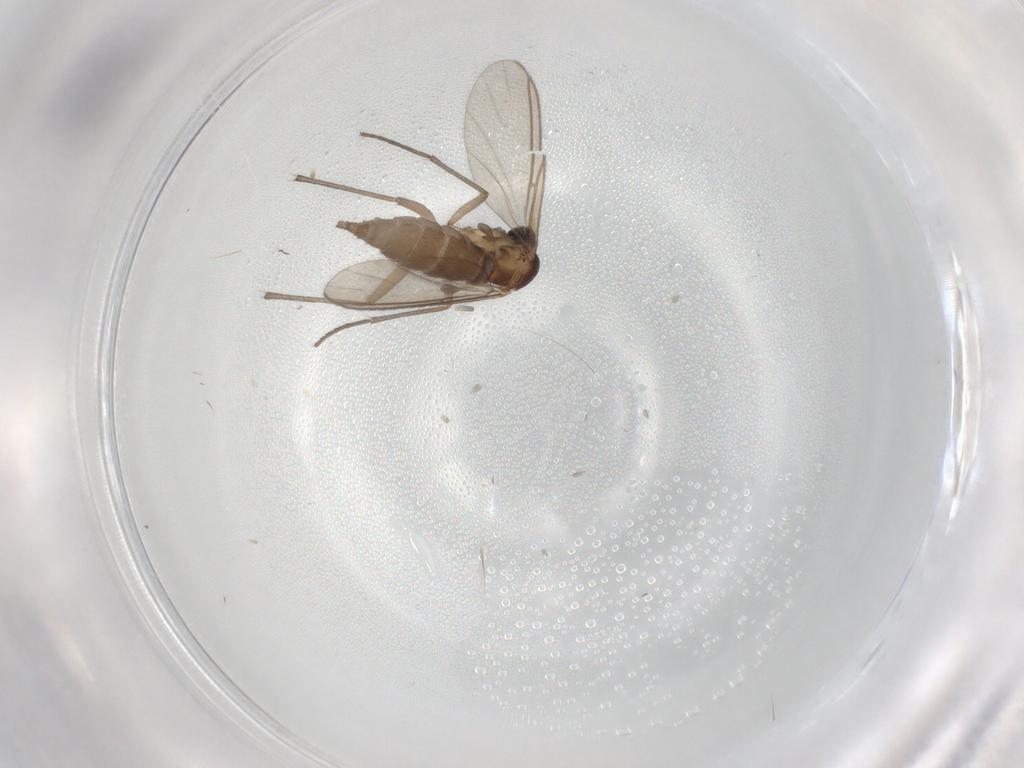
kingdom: Animalia
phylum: Arthropoda
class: Insecta
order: Diptera
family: Sciaridae
